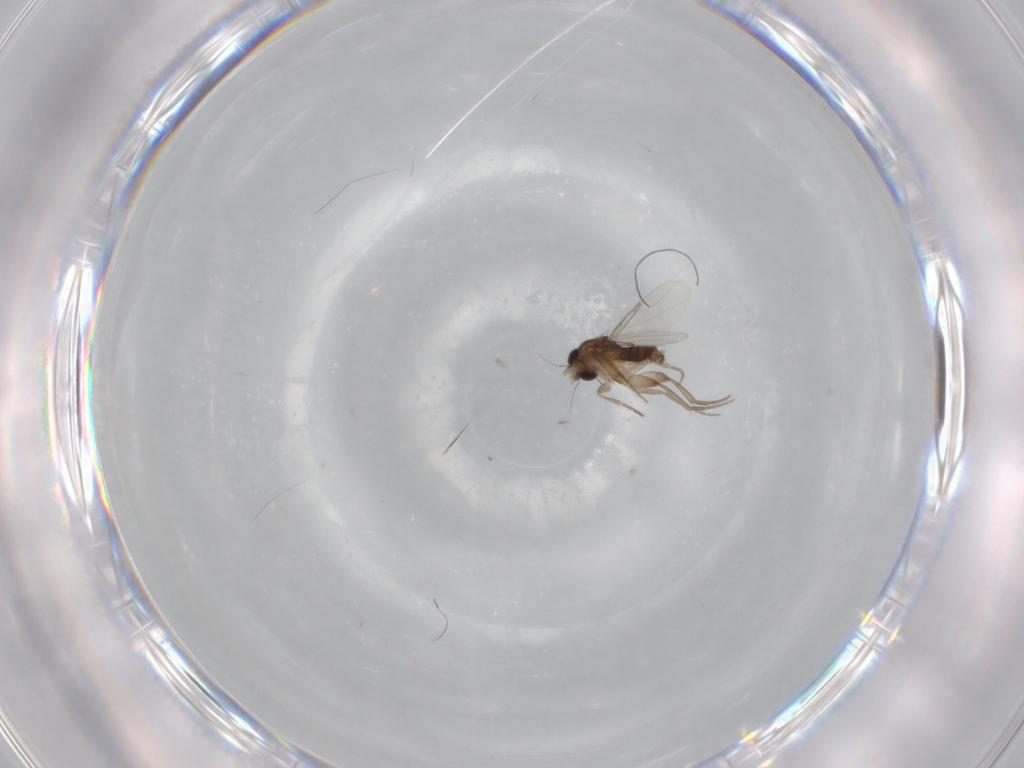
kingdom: Animalia
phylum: Arthropoda
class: Insecta
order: Diptera
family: Phoridae
